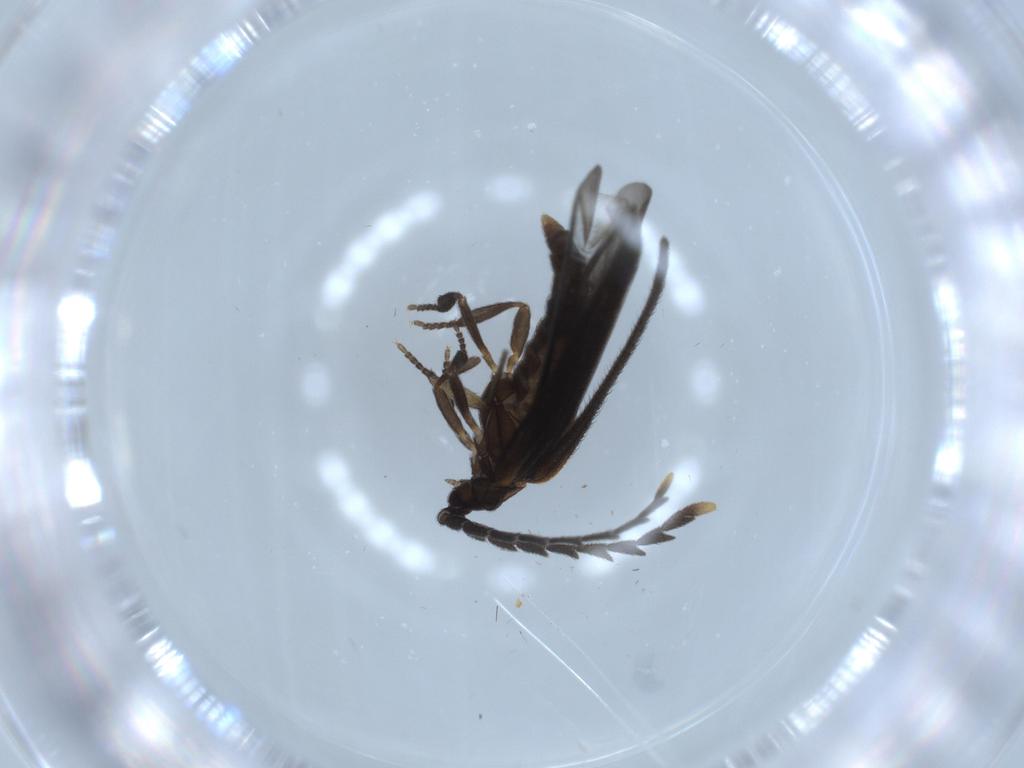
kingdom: Animalia
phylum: Arthropoda
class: Insecta
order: Coleoptera
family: Lycidae
